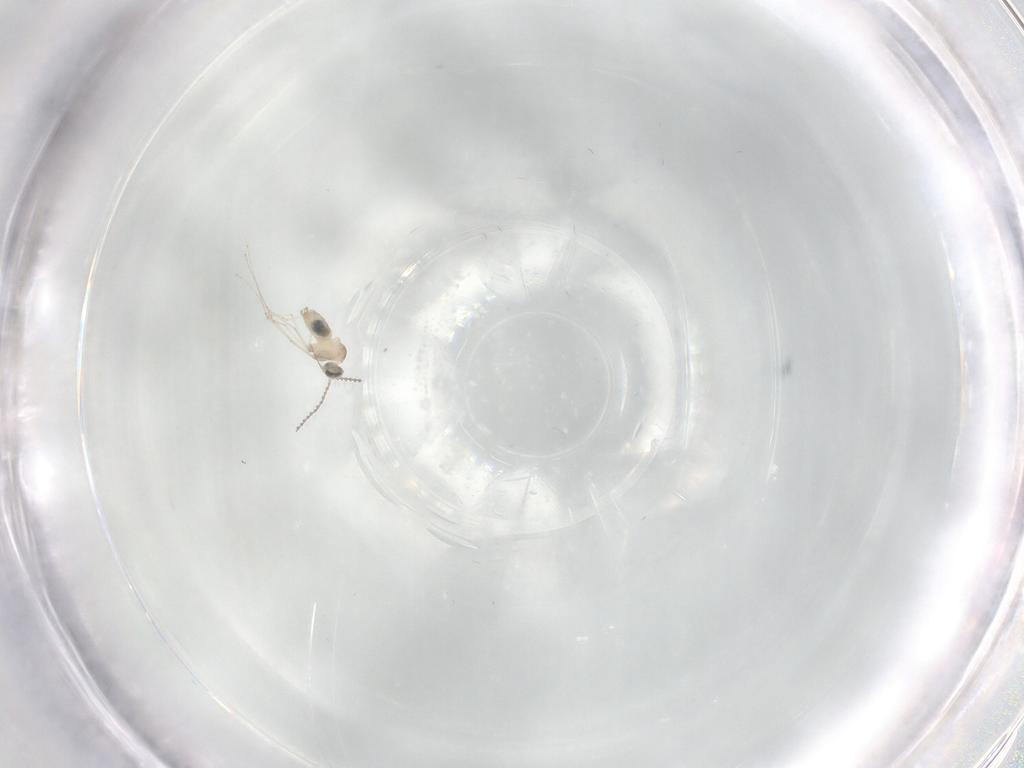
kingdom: Animalia
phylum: Arthropoda
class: Insecta
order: Diptera
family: Cecidomyiidae
